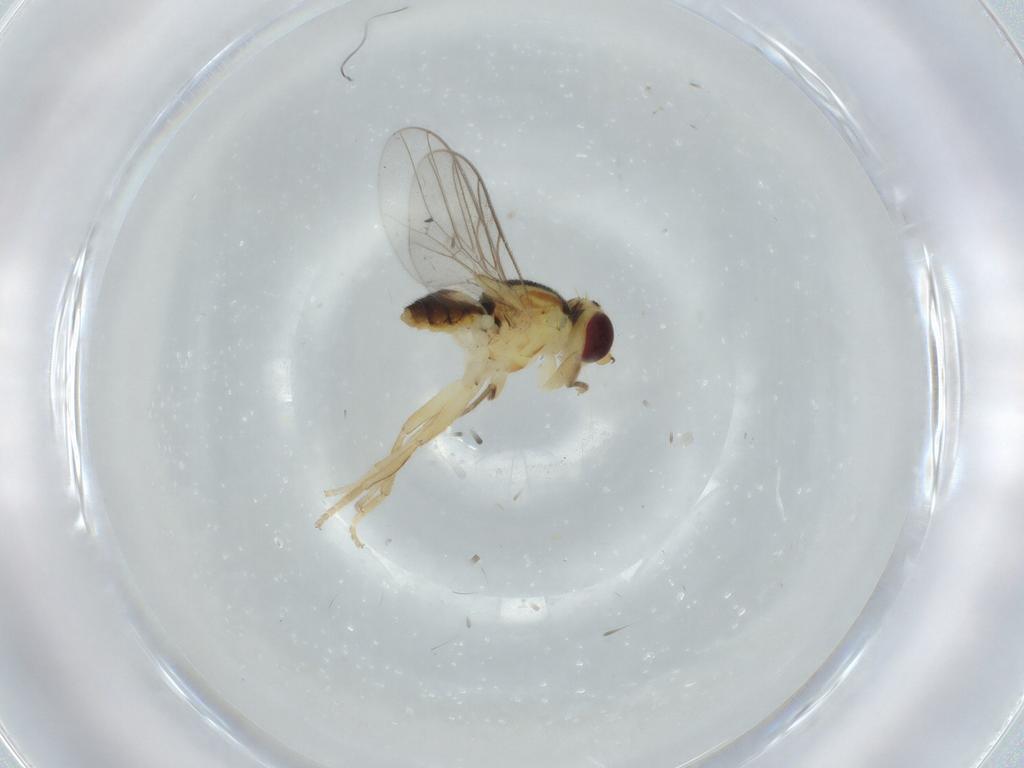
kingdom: Animalia
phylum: Arthropoda
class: Insecta
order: Diptera
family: Chloropidae
